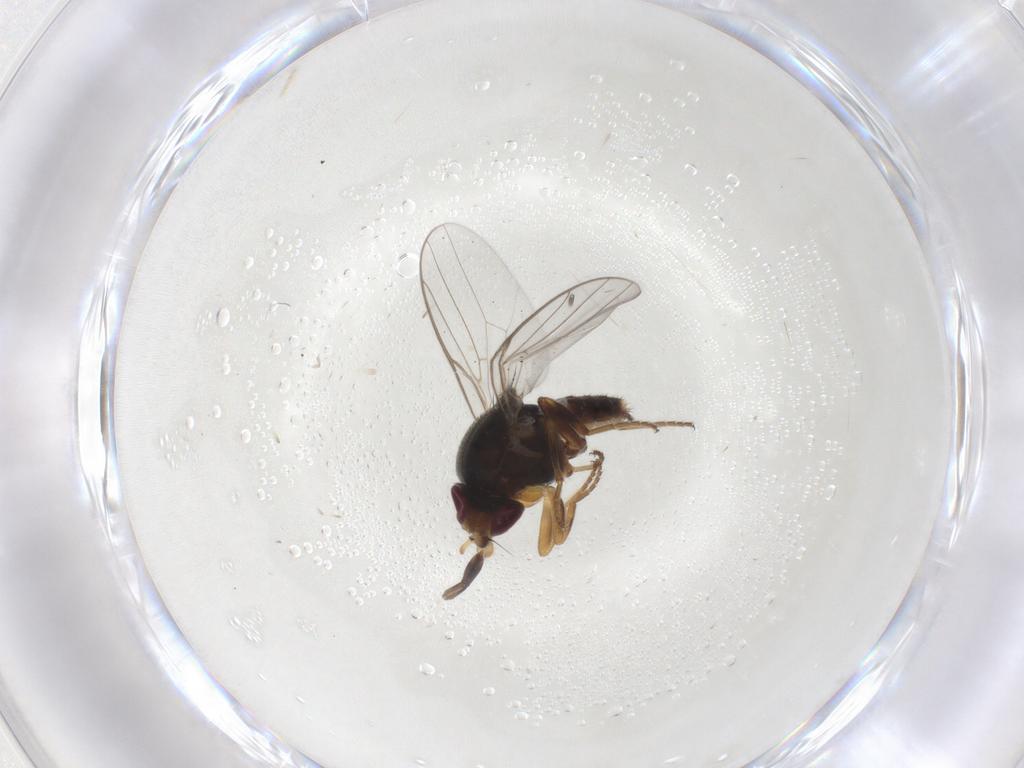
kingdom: Animalia
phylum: Arthropoda
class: Insecta
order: Diptera
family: Chloropidae
